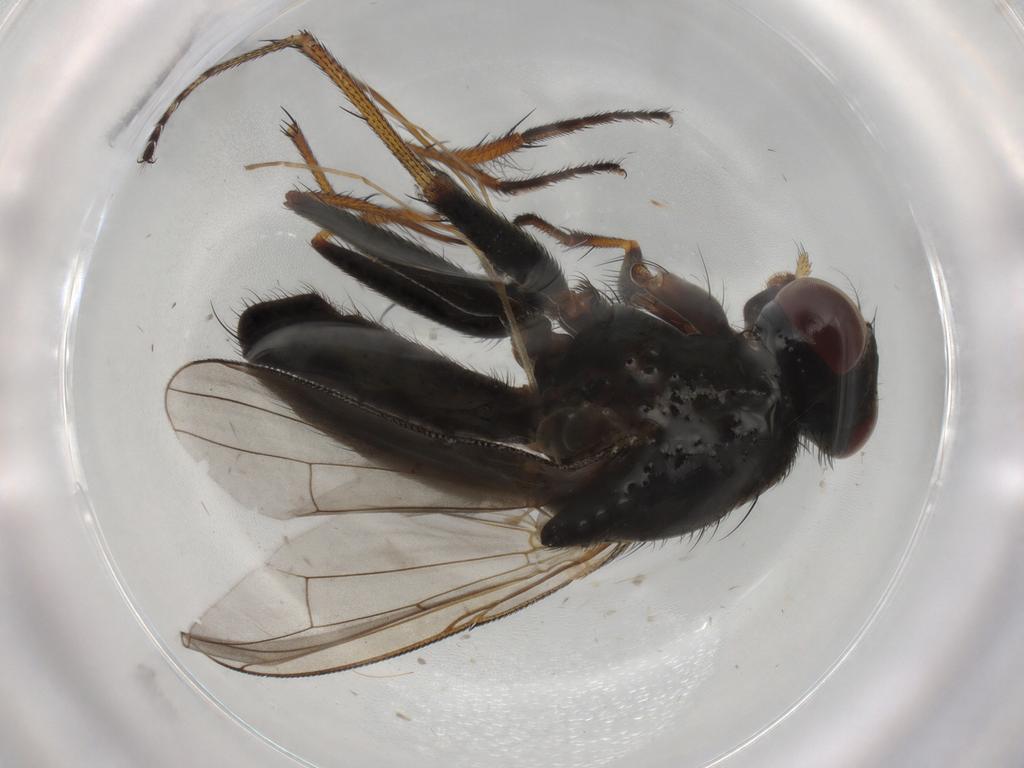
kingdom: Animalia
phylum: Arthropoda
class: Insecta
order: Diptera
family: Muscidae
